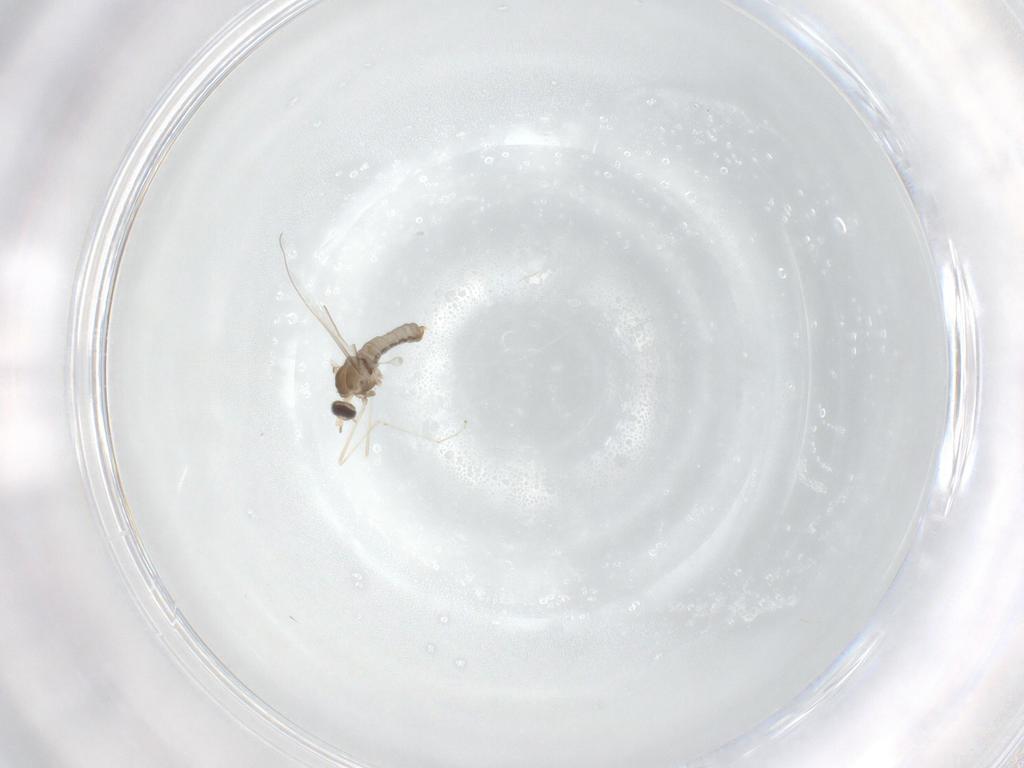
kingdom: Animalia
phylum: Arthropoda
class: Insecta
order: Diptera
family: Cecidomyiidae
